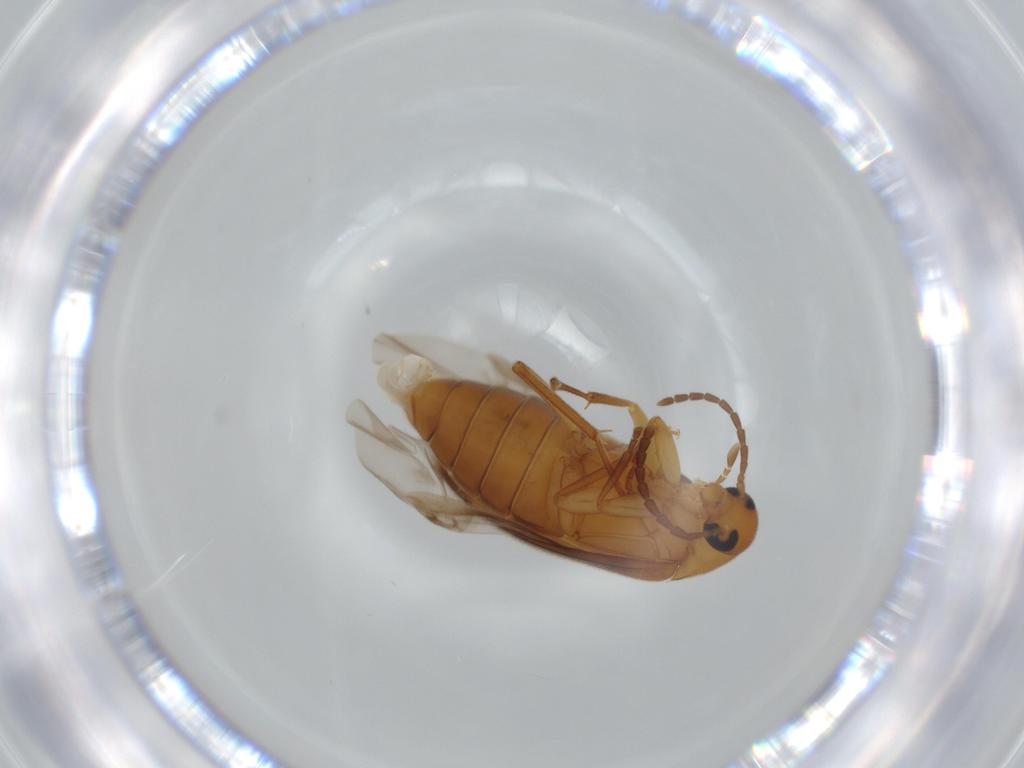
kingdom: Animalia
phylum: Arthropoda
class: Insecta
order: Coleoptera
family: Scraptiidae
